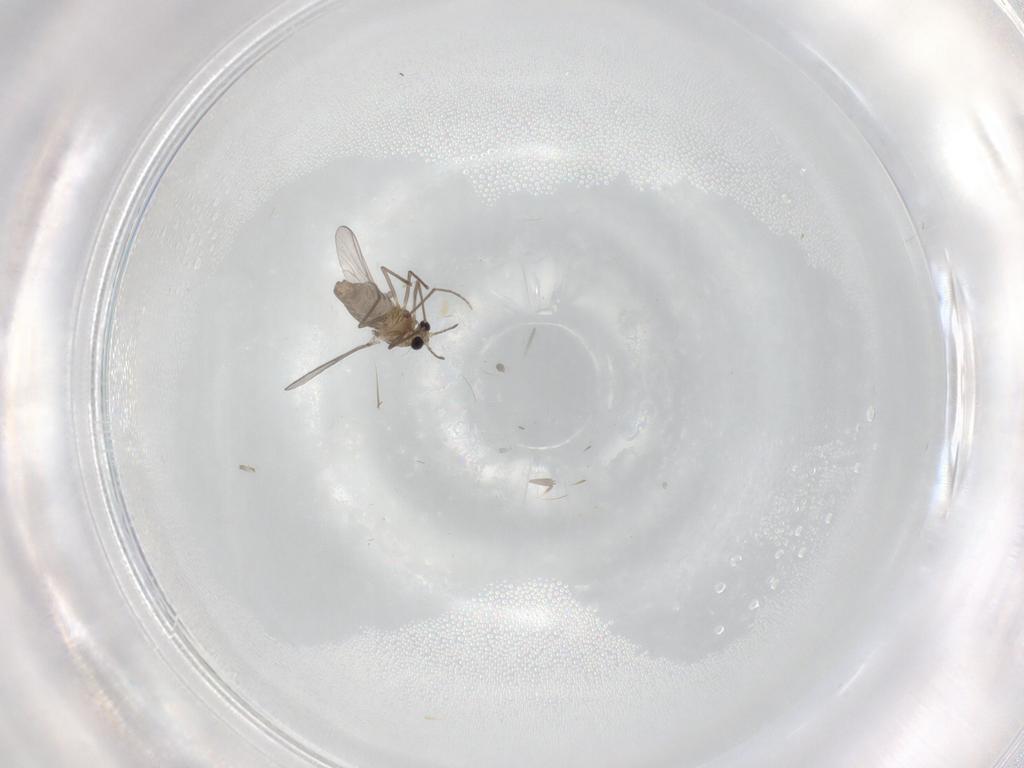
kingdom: Animalia
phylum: Arthropoda
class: Insecta
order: Diptera
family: Chironomidae
